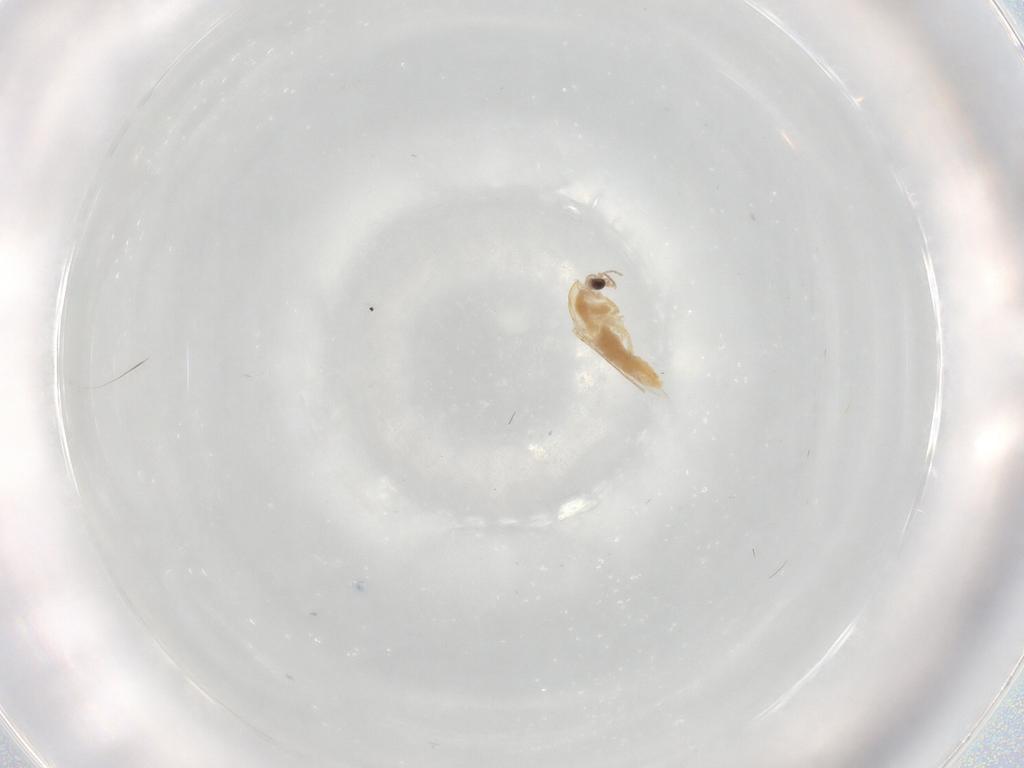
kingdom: Animalia
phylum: Arthropoda
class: Insecta
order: Diptera
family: Chironomidae
